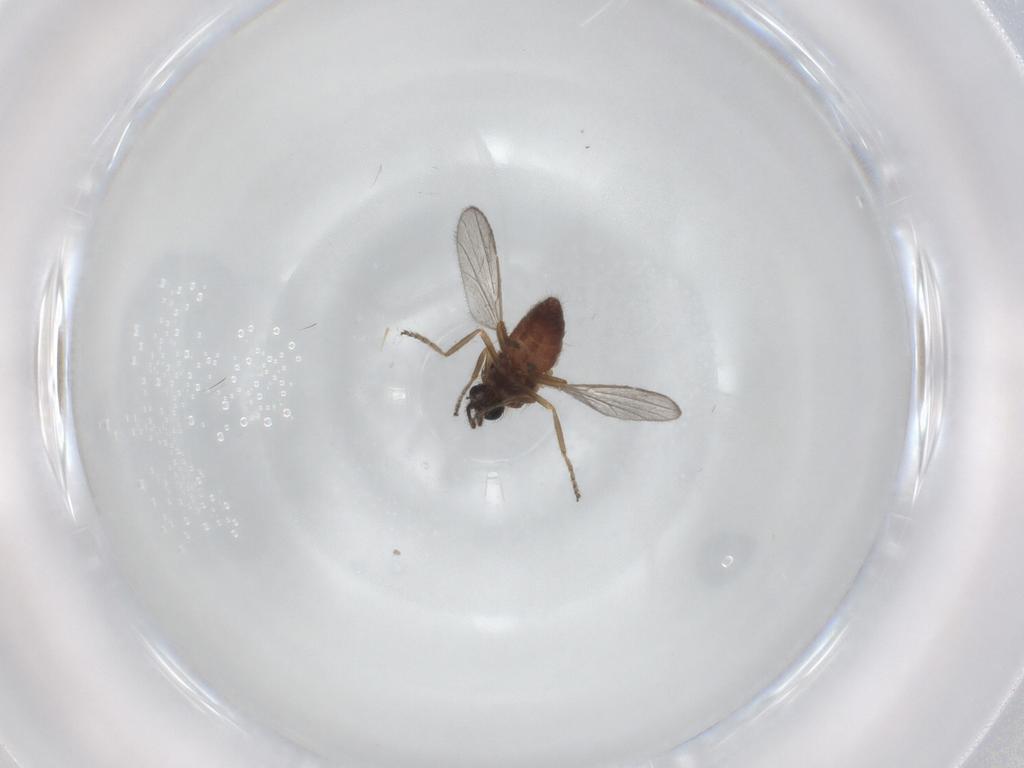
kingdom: Animalia
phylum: Arthropoda
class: Insecta
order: Diptera
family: Ceratopogonidae
